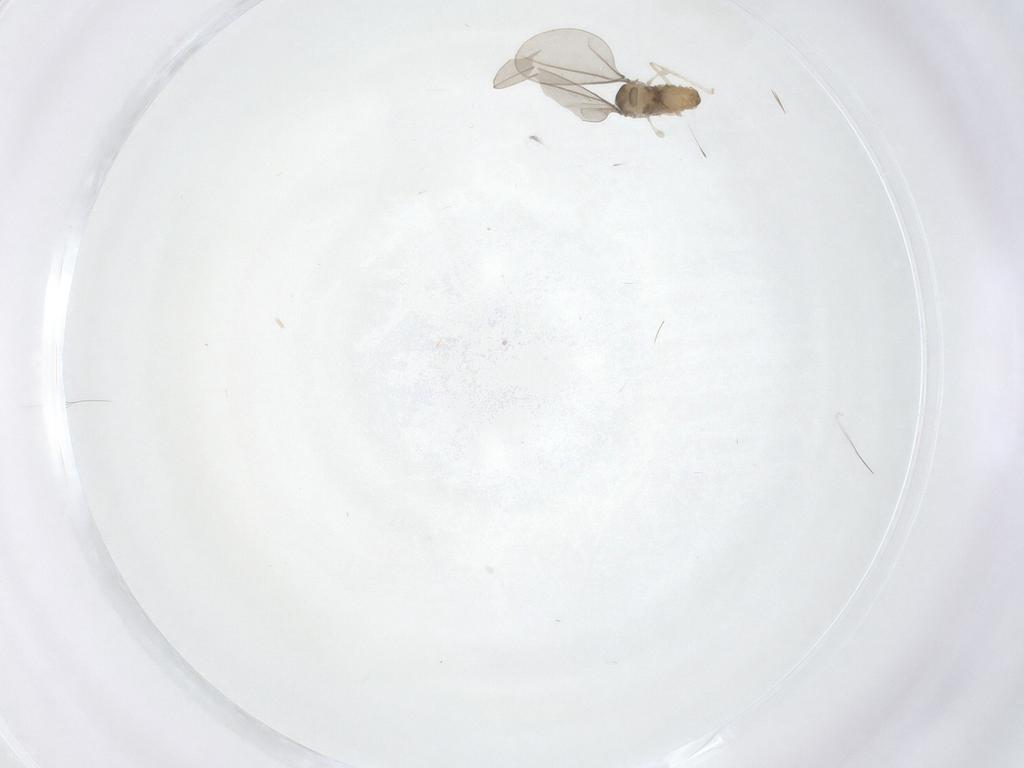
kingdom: Animalia
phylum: Arthropoda
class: Insecta
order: Diptera
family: Cecidomyiidae
